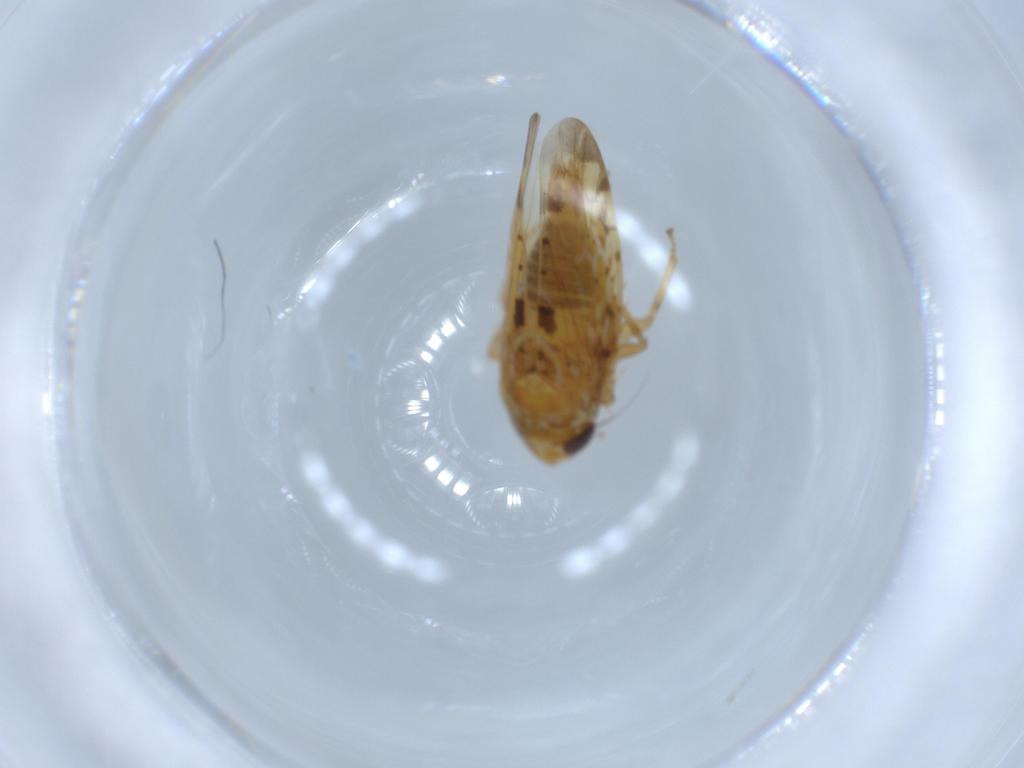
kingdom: Animalia
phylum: Arthropoda
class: Insecta
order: Hemiptera
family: Cicadellidae
